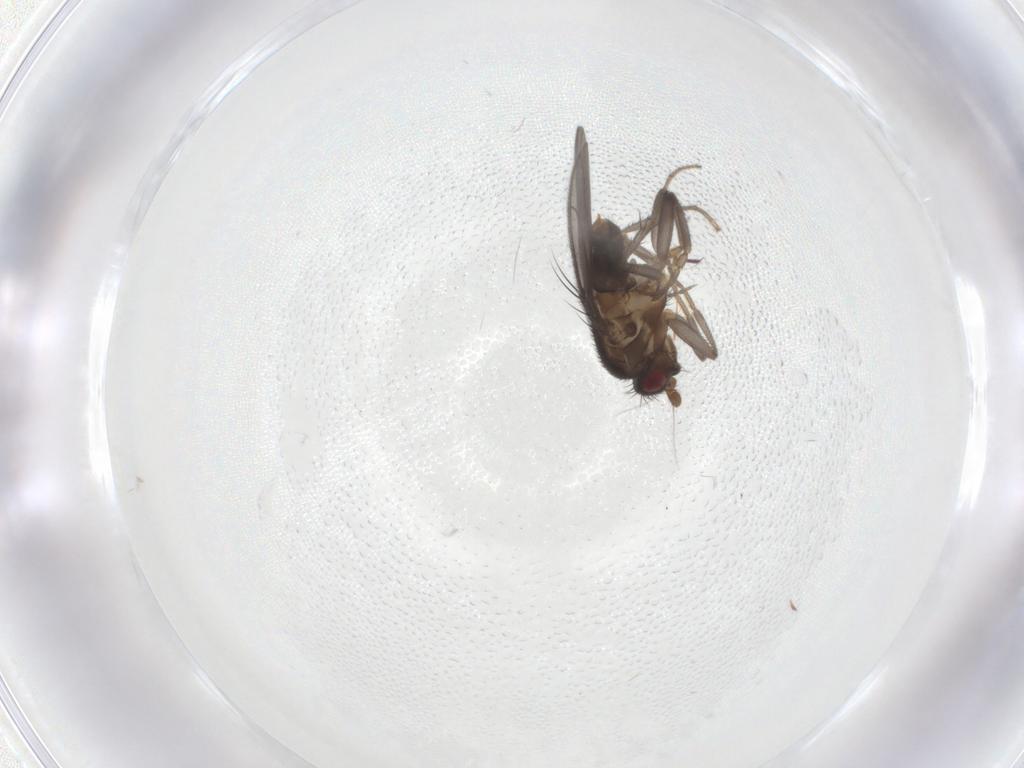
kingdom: Animalia
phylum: Arthropoda
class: Insecta
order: Diptera
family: Sphaeroceridae
